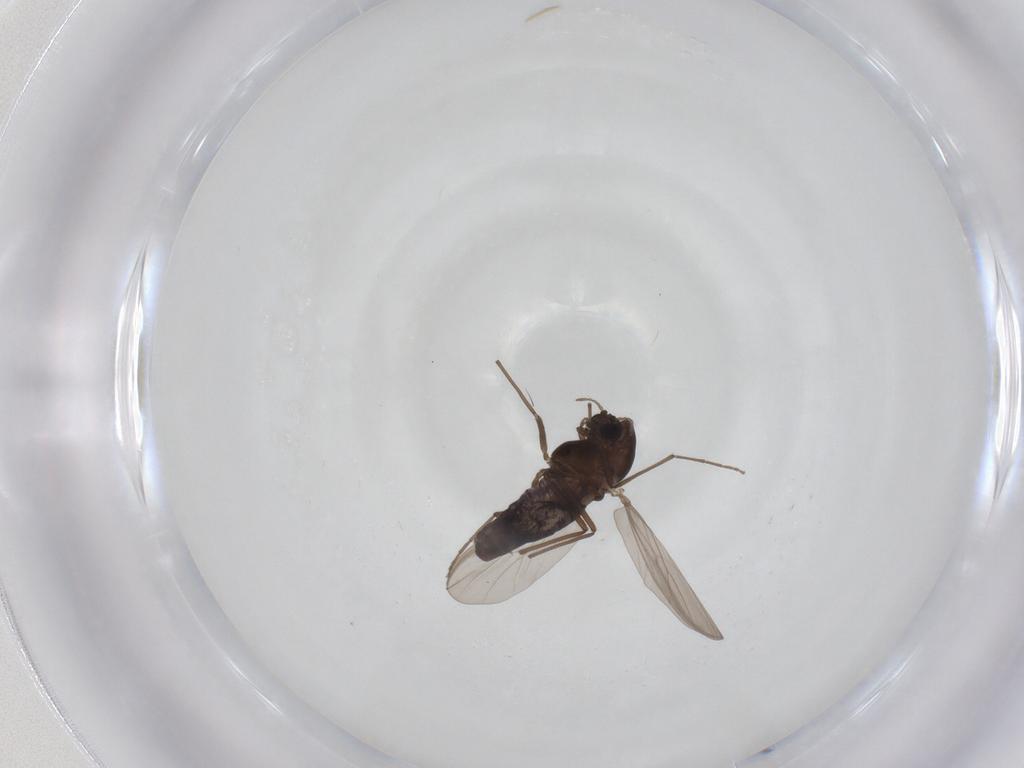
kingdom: Animalia
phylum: Arthropoda
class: Insecta
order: Diptera
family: Chironomidae
